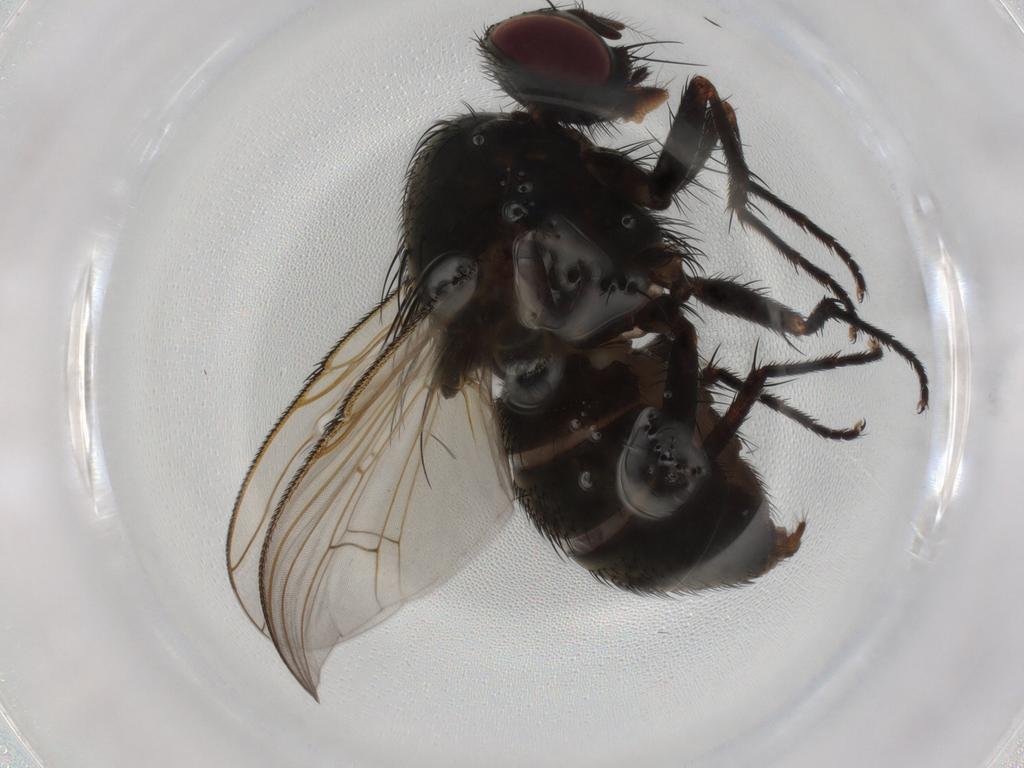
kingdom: Animalia
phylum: Arthropoda
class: Insecta
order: Diptera
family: Muscidae
